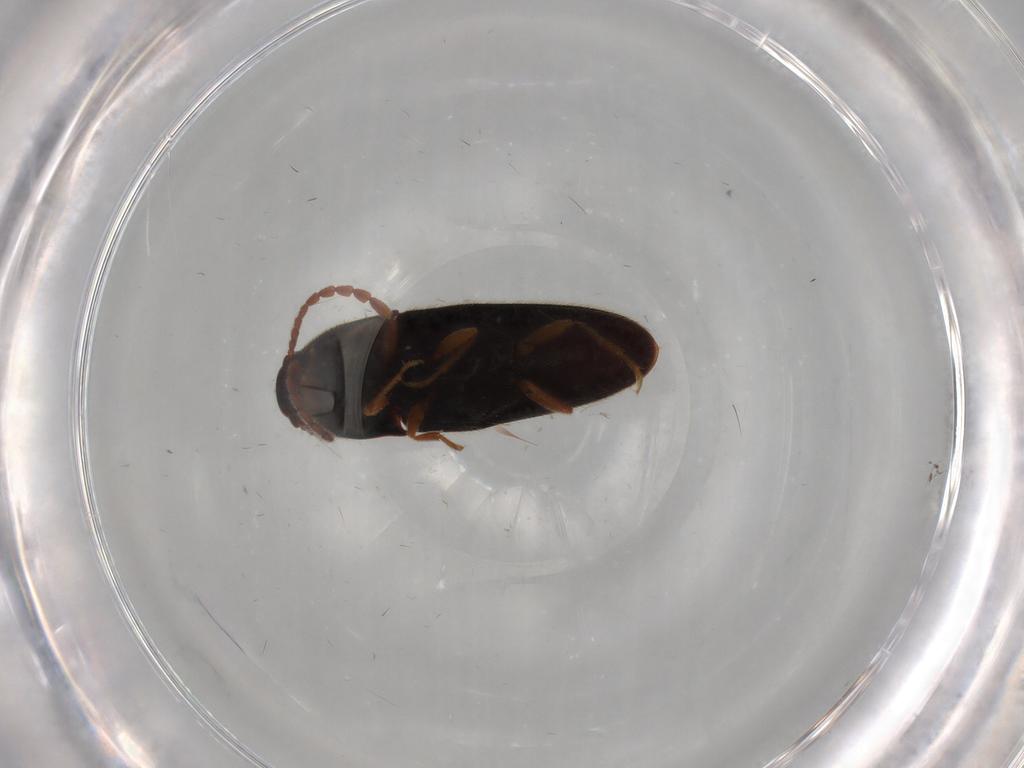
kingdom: Animalia
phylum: Arthropoda
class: Insecta
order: Coleoptera
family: Elateridae
